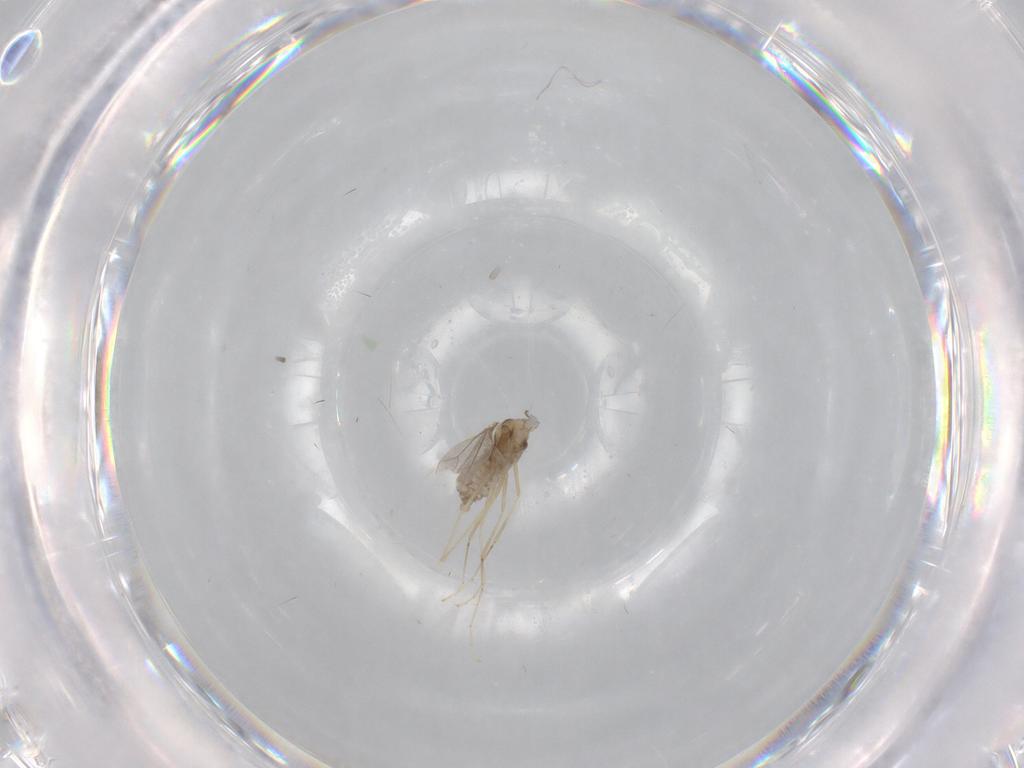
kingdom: Animalia
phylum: Arthropoda
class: Insecta
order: Diptera
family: Cecidomyiidae
